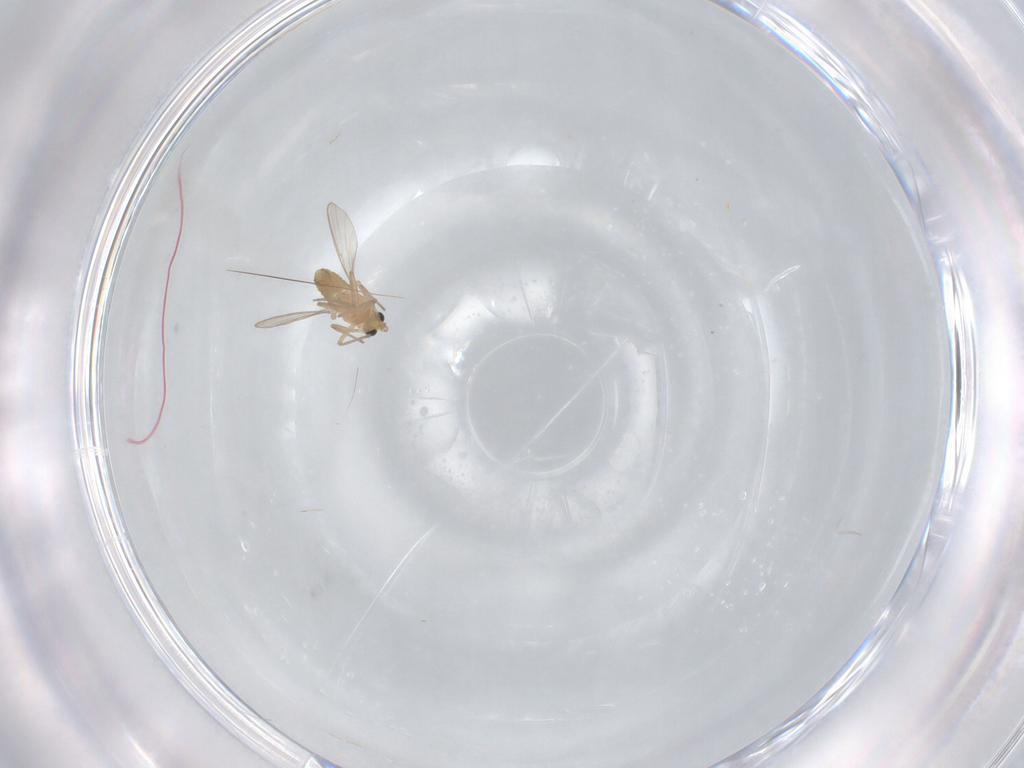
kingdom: Animalia
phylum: Arthropoda
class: Insecta
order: Diptera
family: Chironomidae
